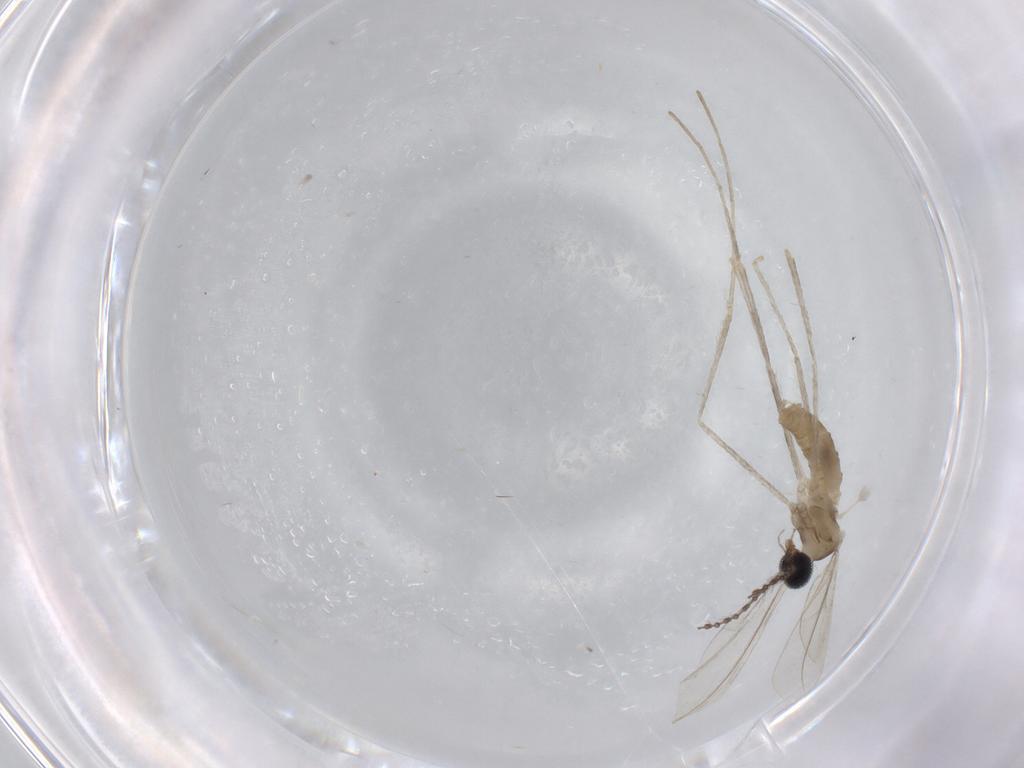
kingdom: Animalia
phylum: Arthropoda
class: Insecta
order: Diptera
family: Cecidomyiidae
